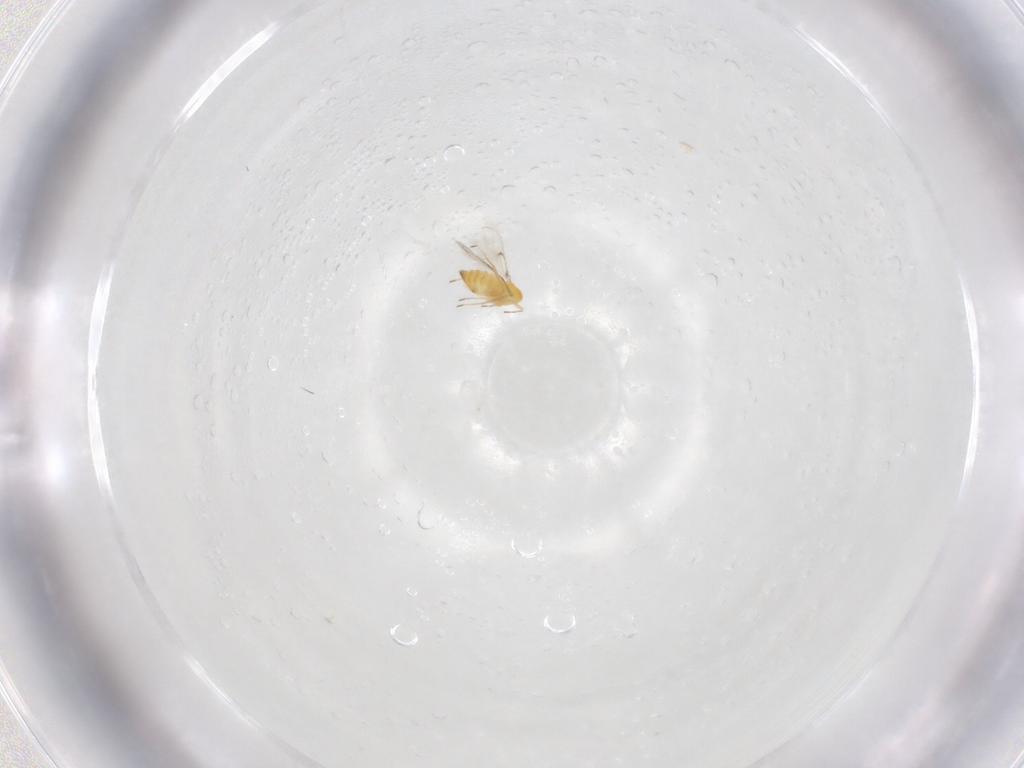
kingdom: Animalia
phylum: Arthropoda
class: Insecta
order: Hymenoptera
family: Trichogrammatidae
